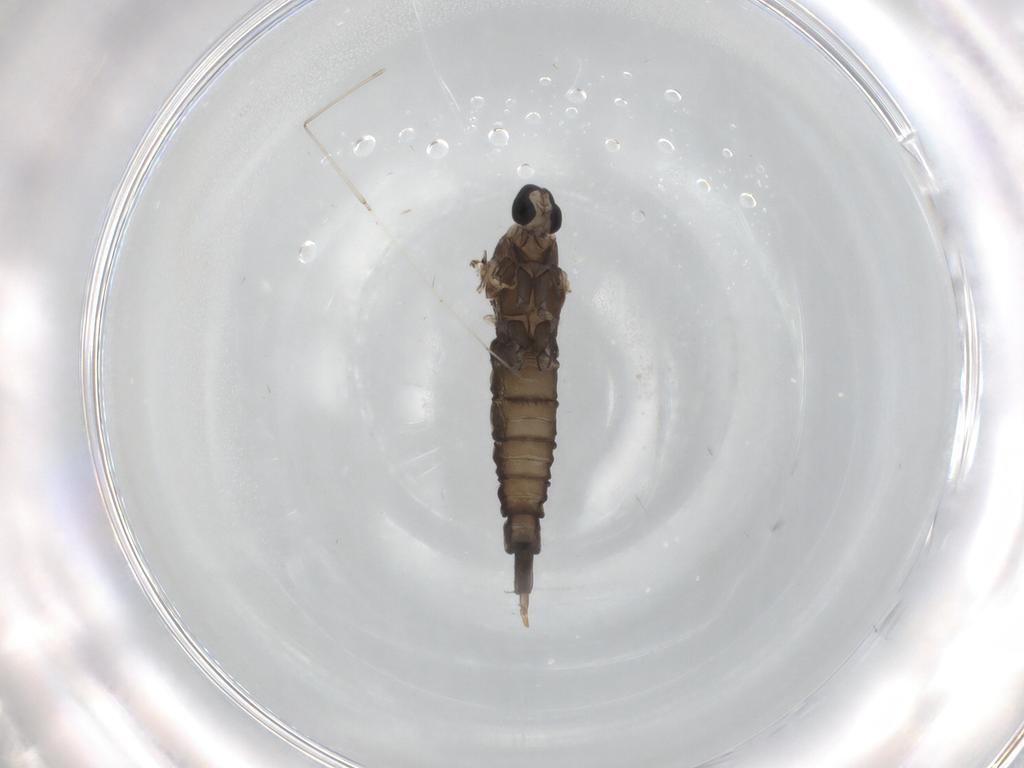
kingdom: Animalia
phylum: Arthropoda
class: Insecta
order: Diptera
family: Cecidomyiidae
